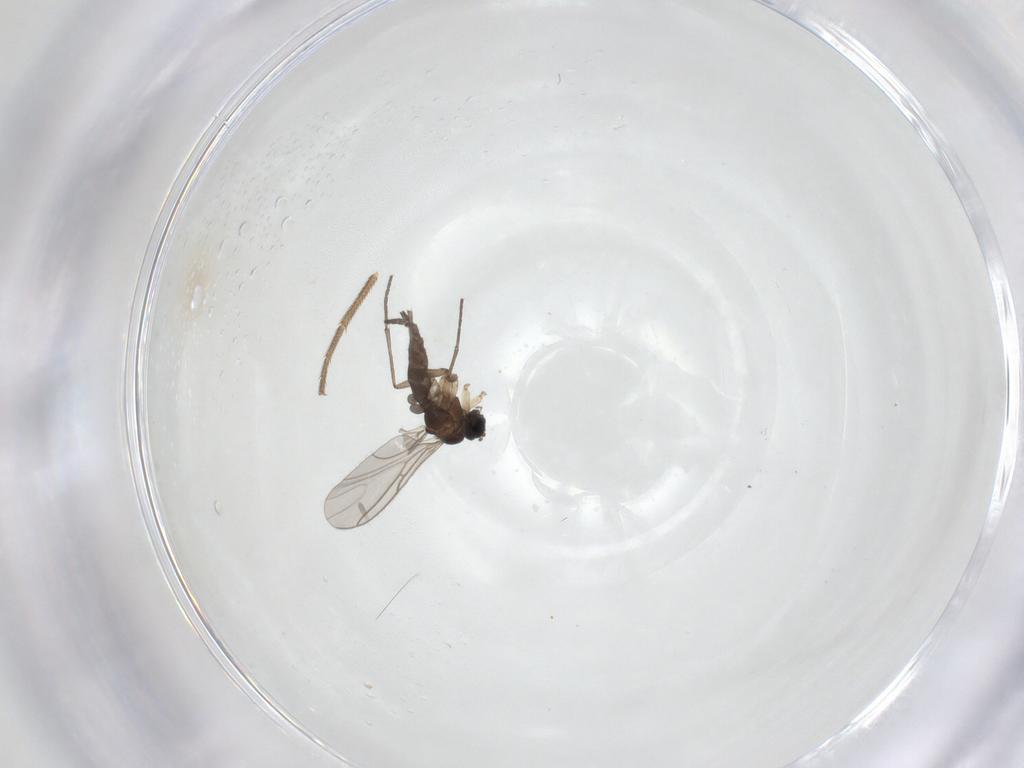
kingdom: Animalia
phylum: Arthropoda
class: Insecta
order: Diptera
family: Sciaridae
